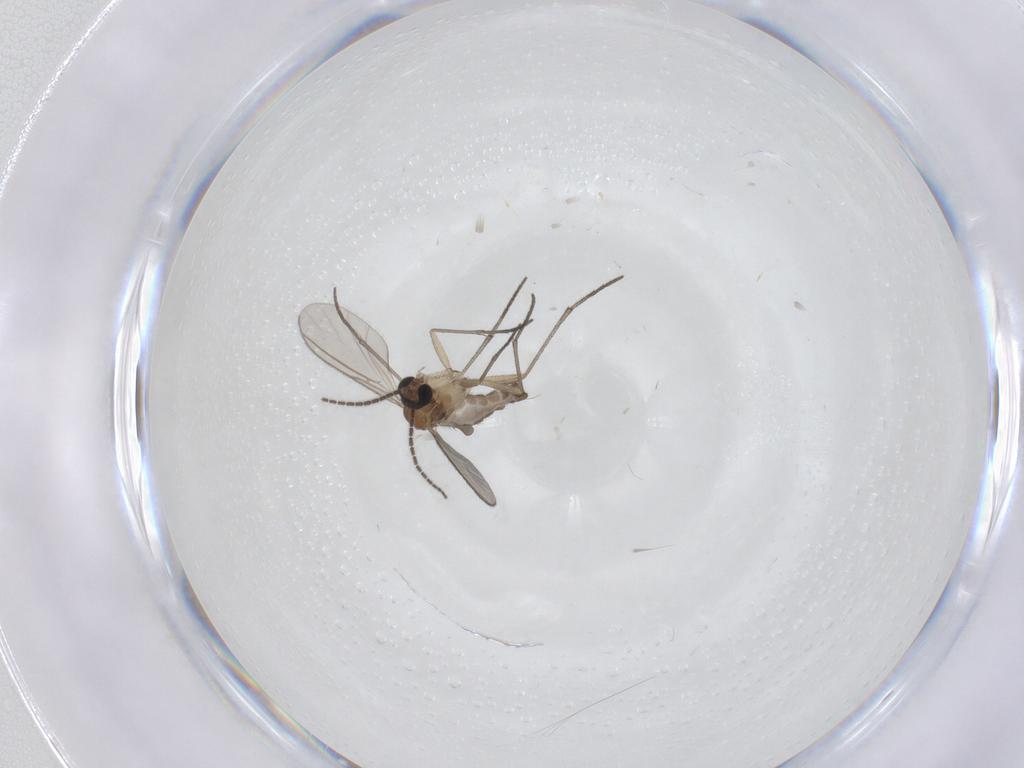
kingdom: Animalia
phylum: Arthropoda
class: Insecta
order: Diptera
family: Sciaridae
